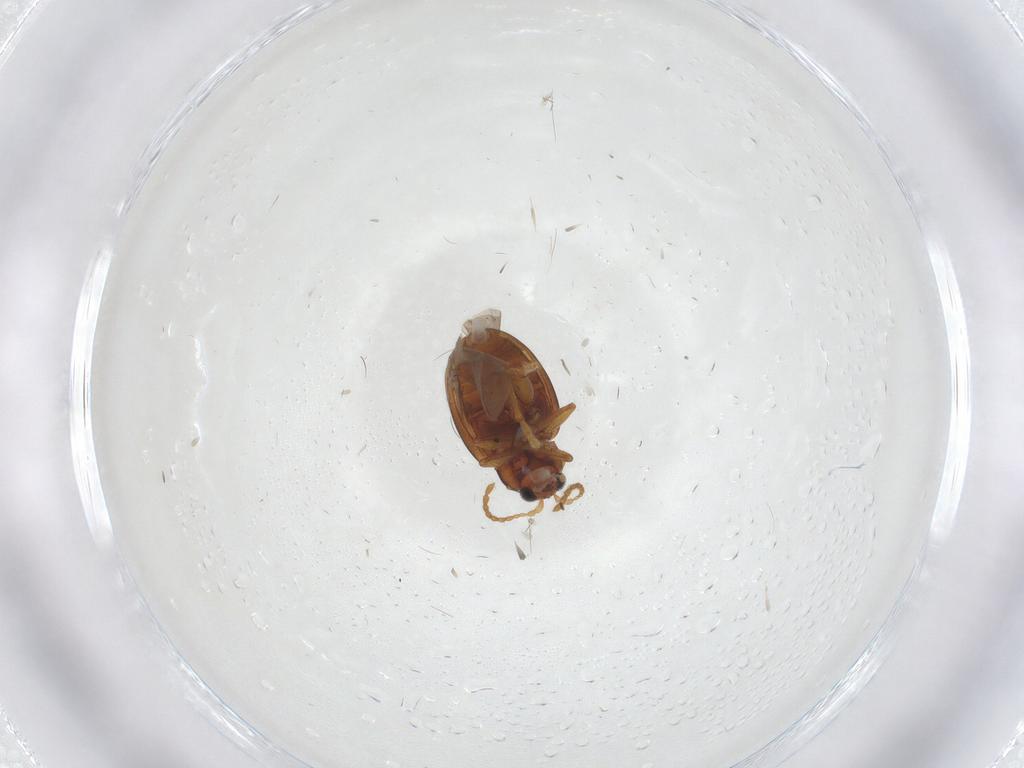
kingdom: Animalia
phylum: Arthropoda
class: Insecta
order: Coleoptera
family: Chrysomelidae
